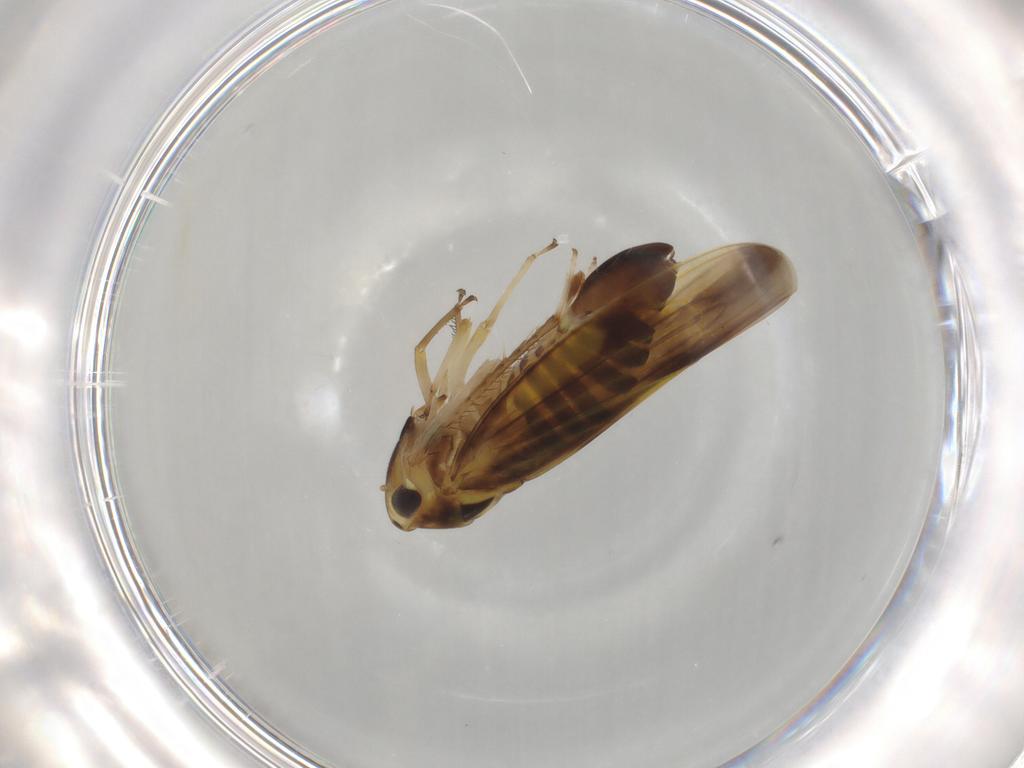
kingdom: Animalia
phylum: Arthropoda
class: Insecta
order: Hemiptera
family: Cicadellidae
